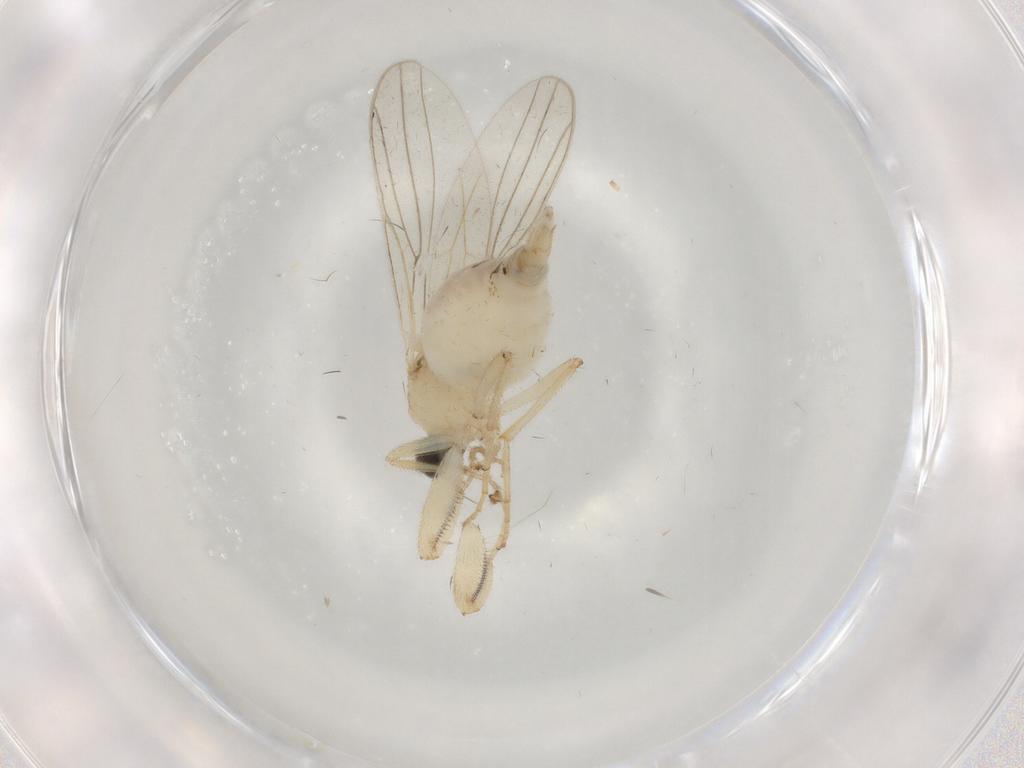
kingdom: Animalia
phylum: Arthropoda
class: Insecta
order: Diptera
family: Hybotidae
